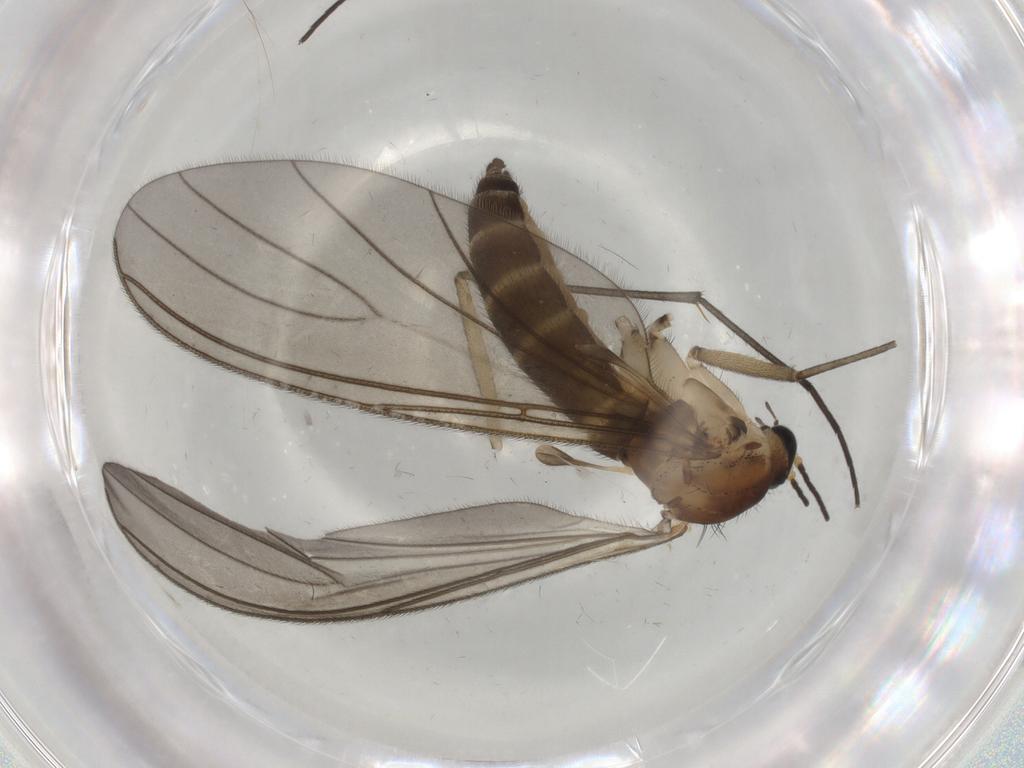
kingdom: Animalia
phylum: Arthropoda
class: Insecta
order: Diptera
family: Sciaridae
